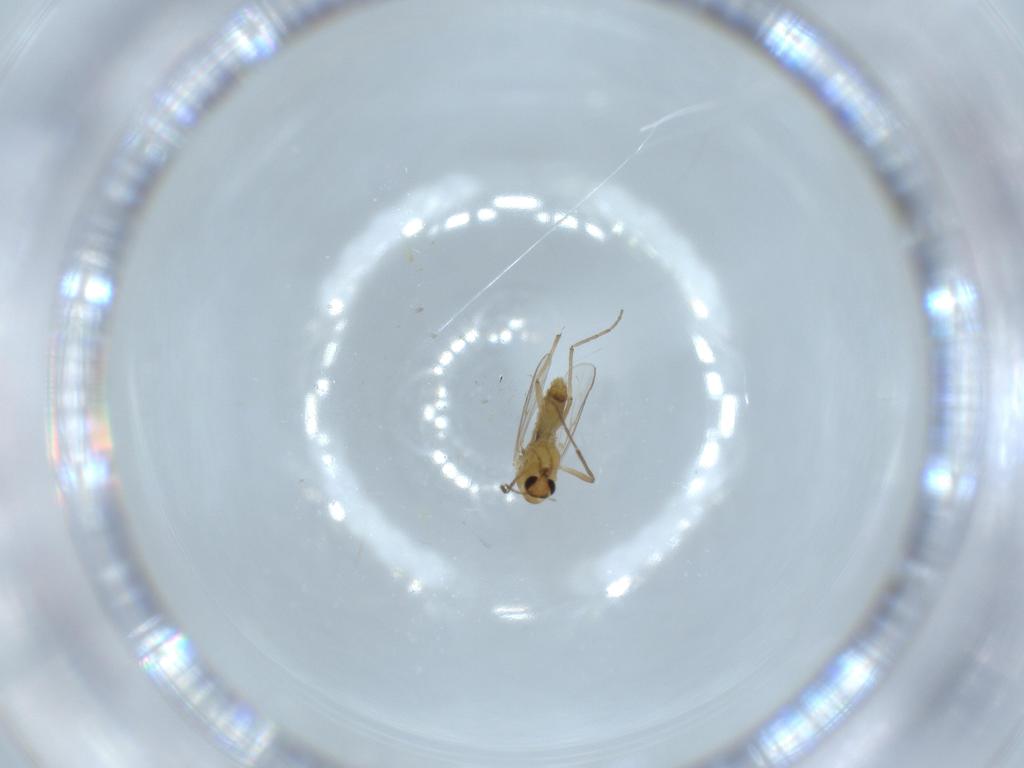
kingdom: Animalia
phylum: Arthropoda
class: Insecta
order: Diptera
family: Chironomidae
